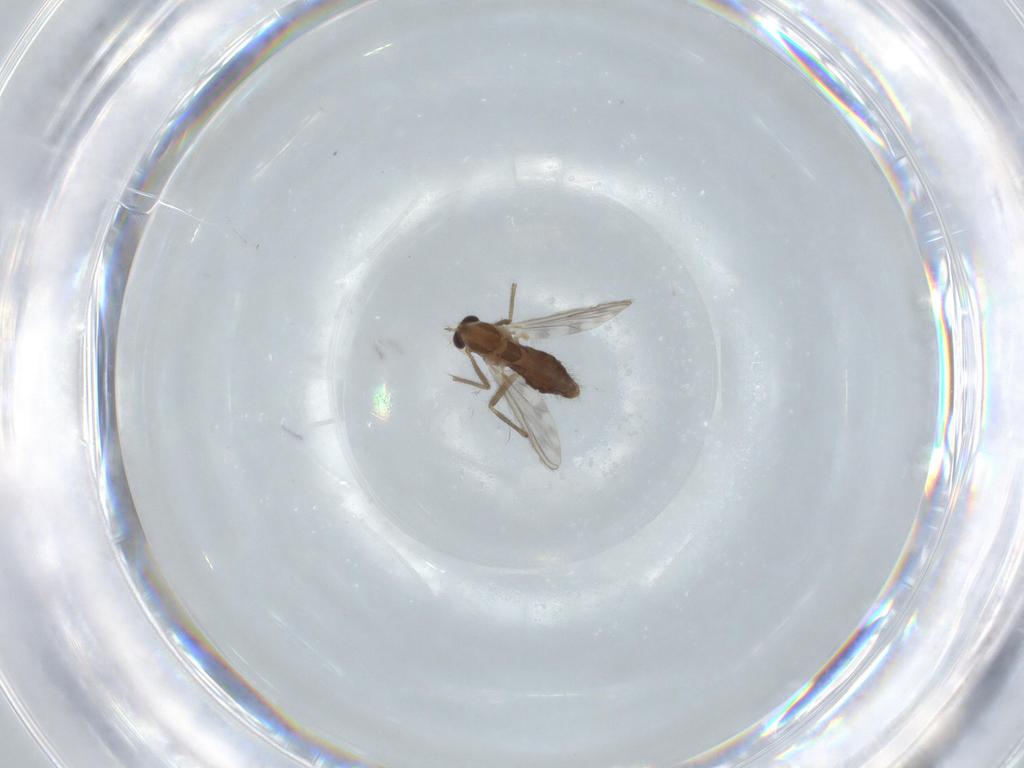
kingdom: Animalia
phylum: Arthropoda
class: Insecta
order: Diptera
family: Chironomidae
